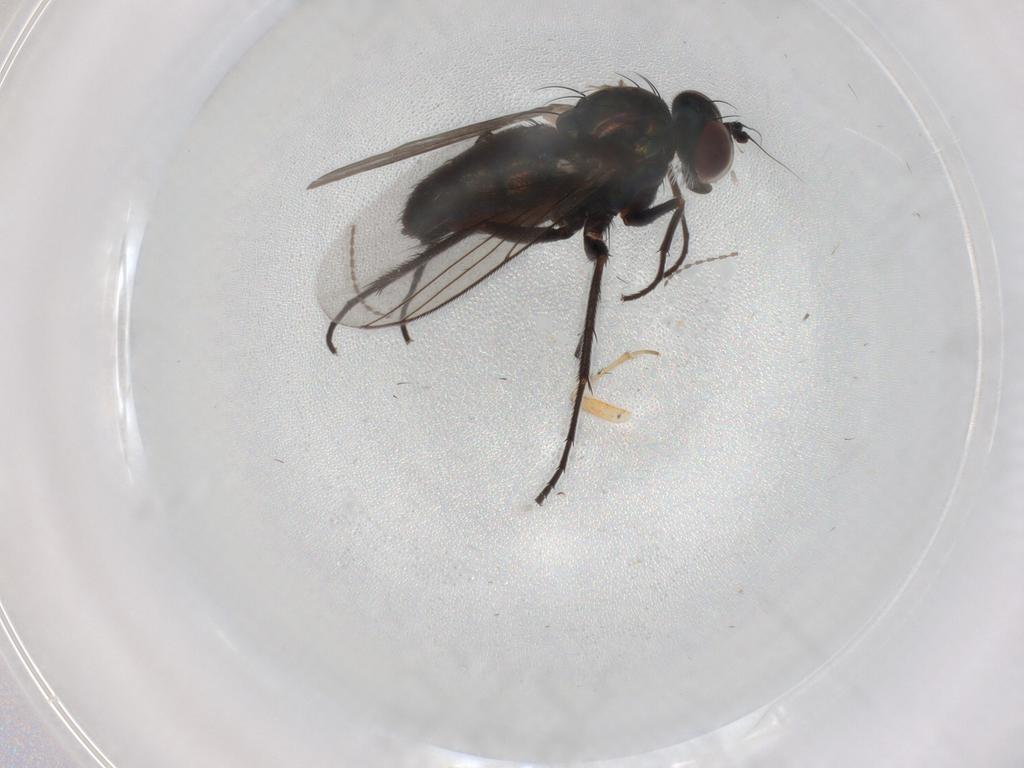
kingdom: Animalia
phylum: Arthropoda
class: Insecta
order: Diptera
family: Dolichopodidae
